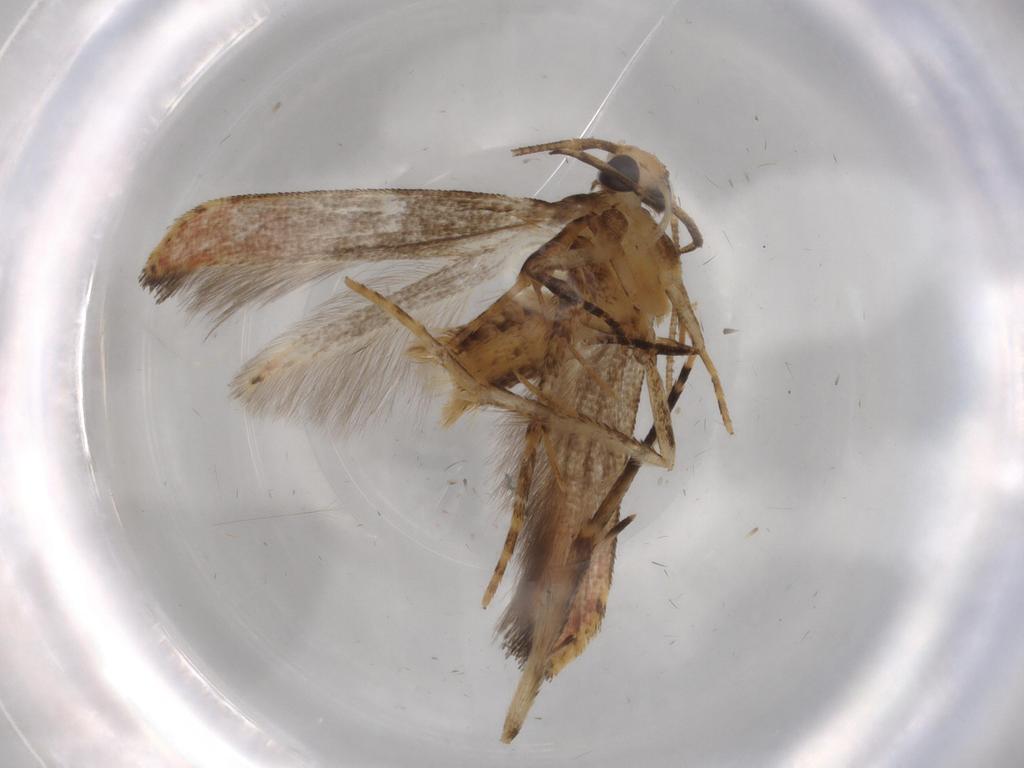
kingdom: Animalia
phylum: Arthropoda
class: Insecta
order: Lepidoptera
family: Cosmopterigidae
